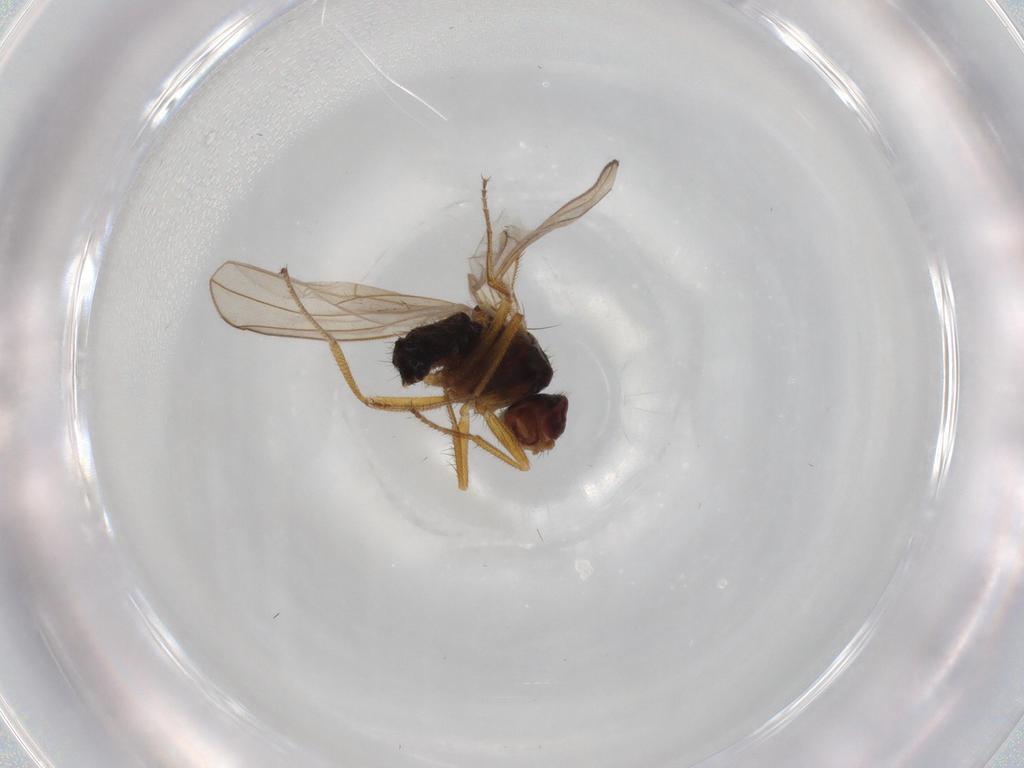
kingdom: Animalia
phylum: Arthropoda
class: Insecta
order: Diptera
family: Drosophilidae
